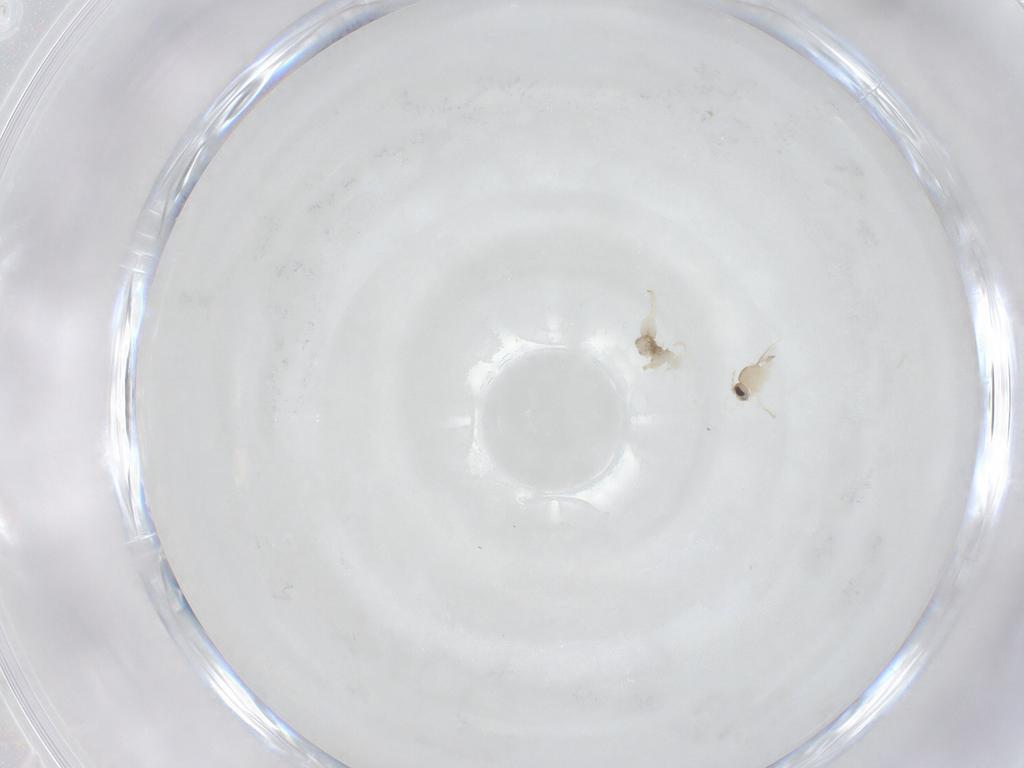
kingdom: Animalia
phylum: Arthropoda
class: Insecta
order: Diptera
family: Cecidomyiidae
